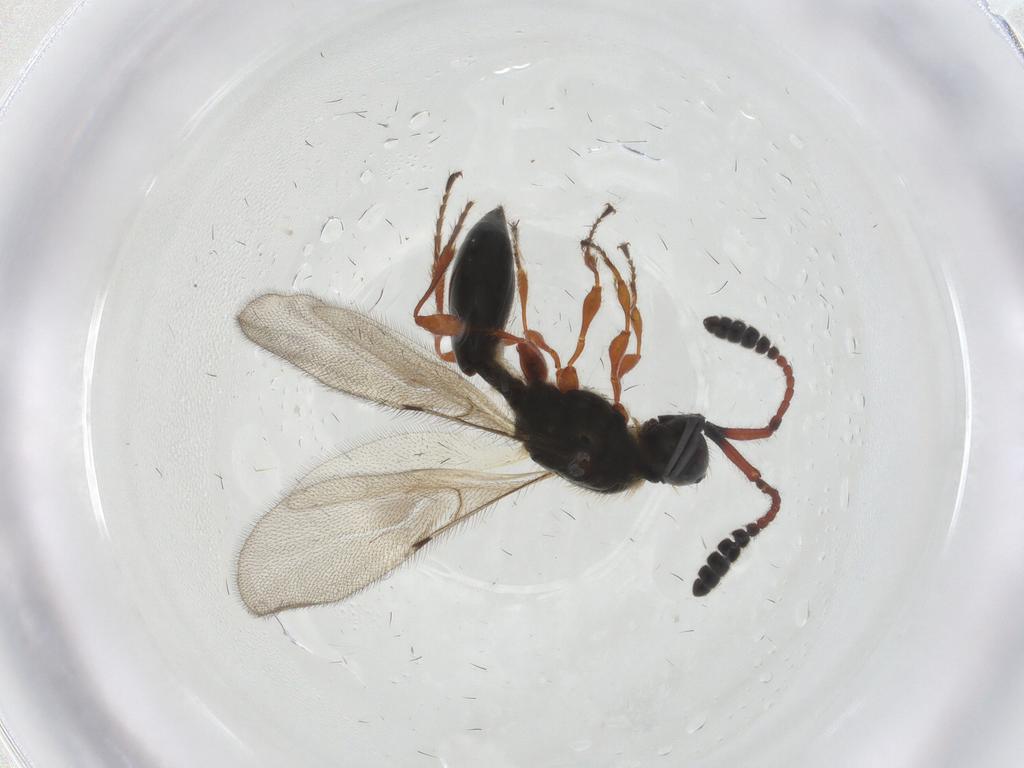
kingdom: Animalia
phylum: Arthropoda
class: Insecta
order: Hymenoptera
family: Diapriidae
